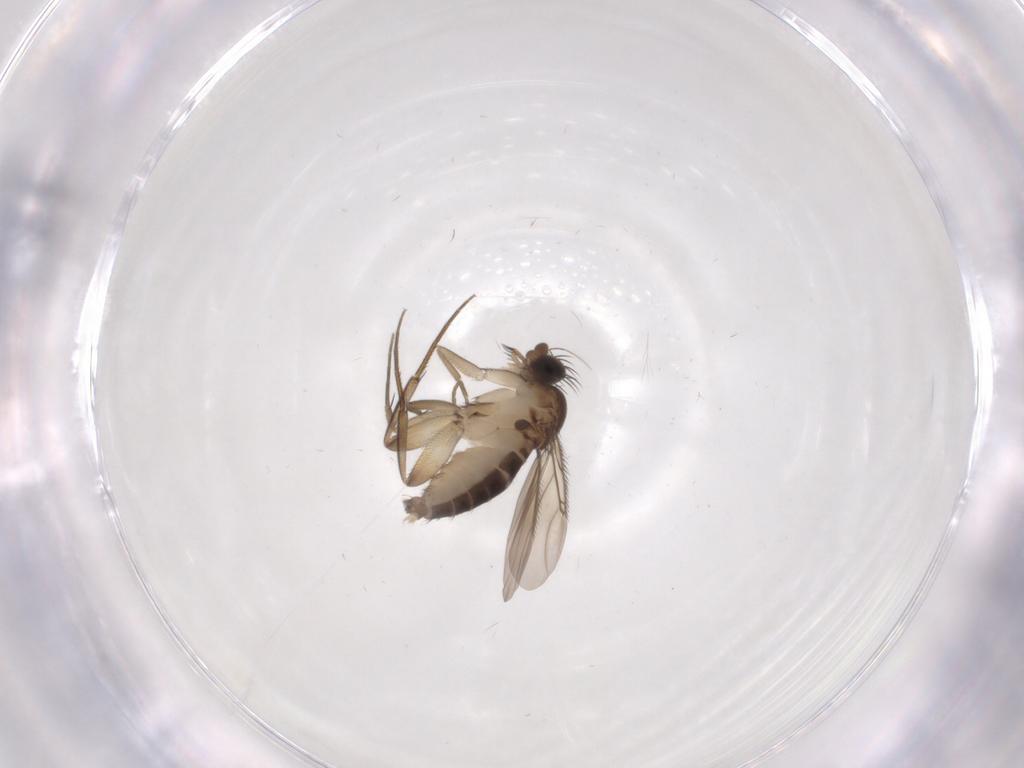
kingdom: Animalia
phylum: Arthropoda
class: Insecta
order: Diptera
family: Phoridae
